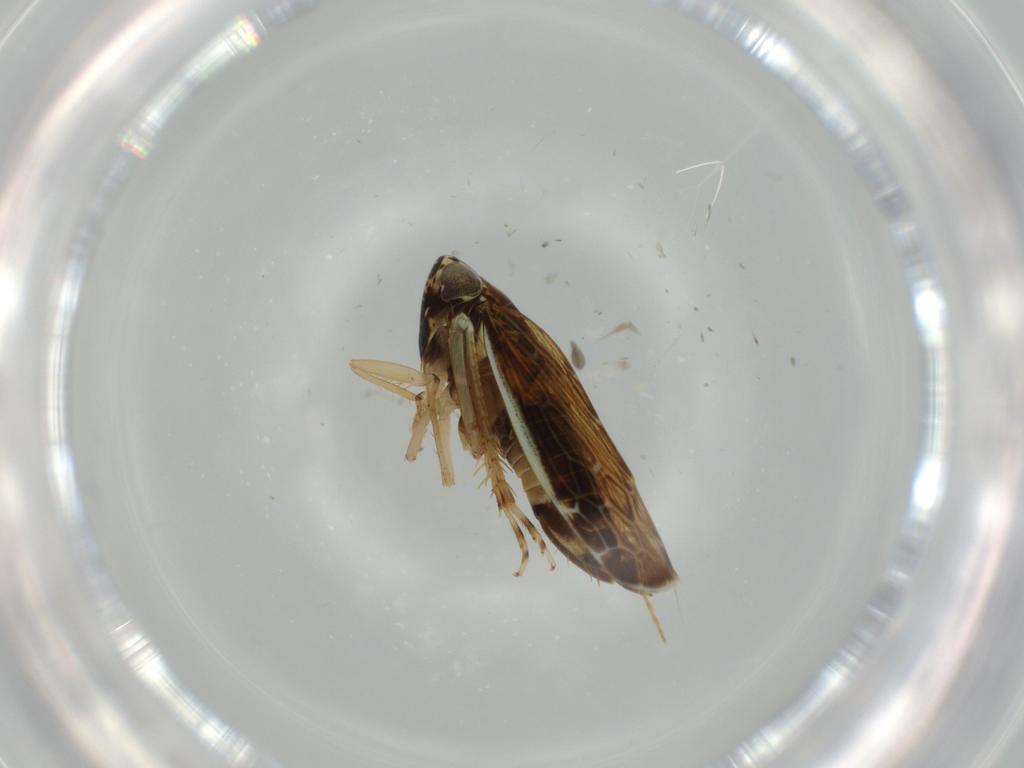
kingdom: Animalia
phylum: Arthropoda
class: Insecta
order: Hemiptera
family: Cicadellidae
